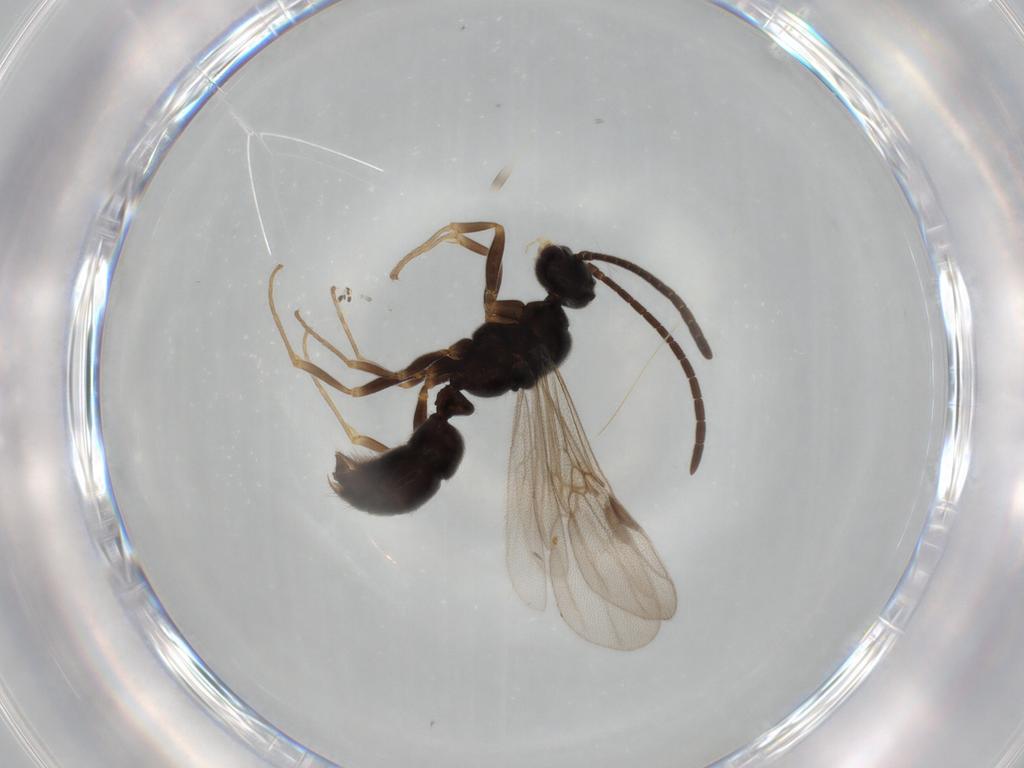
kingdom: Animalia
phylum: Arthropoda
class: Insecta
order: Hymenoptera
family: Formicidae
